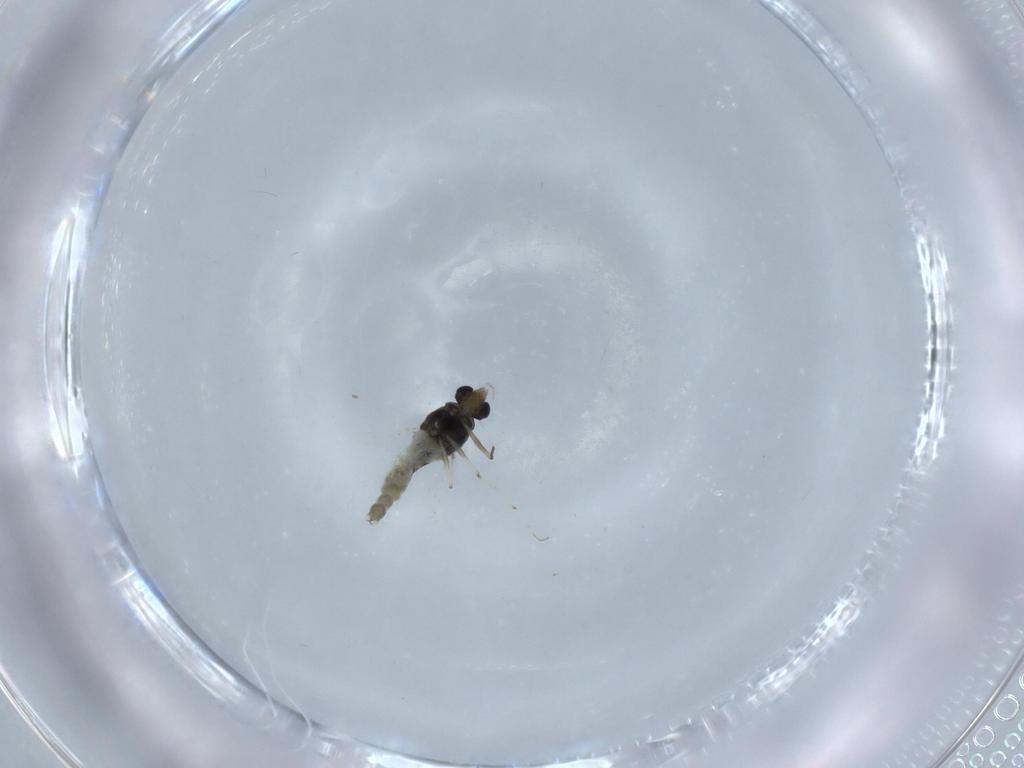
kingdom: Animalia
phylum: Arthropoda
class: Insecta
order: Diptera
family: Chironomidae
